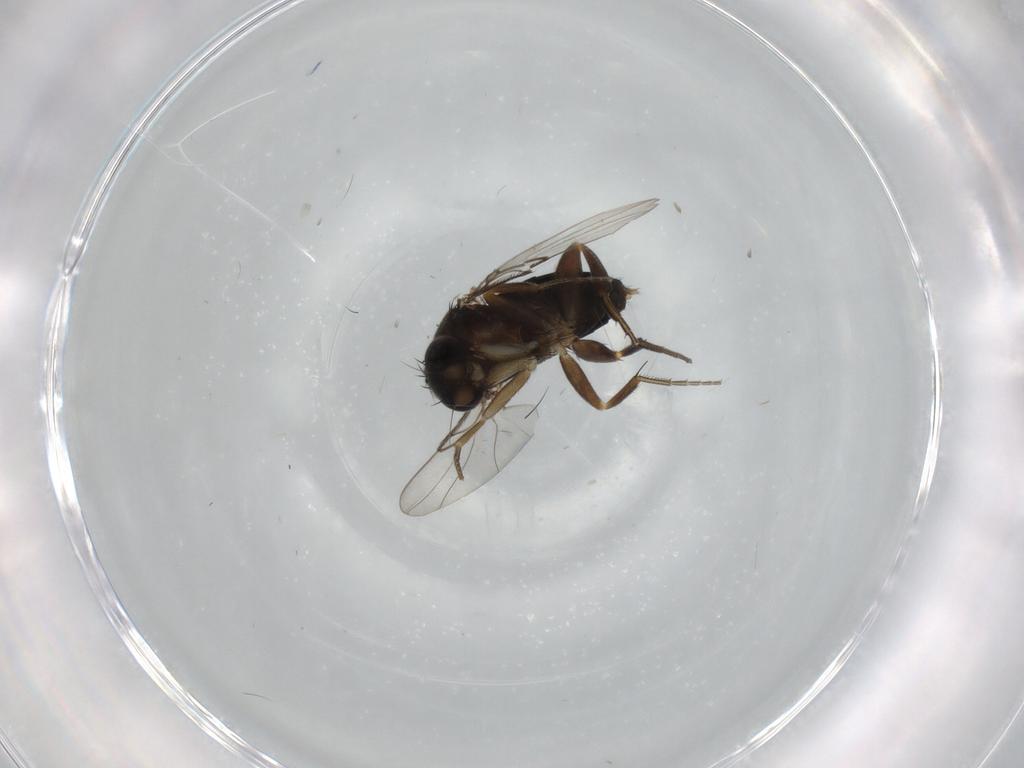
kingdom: Animalia
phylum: Arthropoda
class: Insecta
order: Diptera
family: Phoridae
